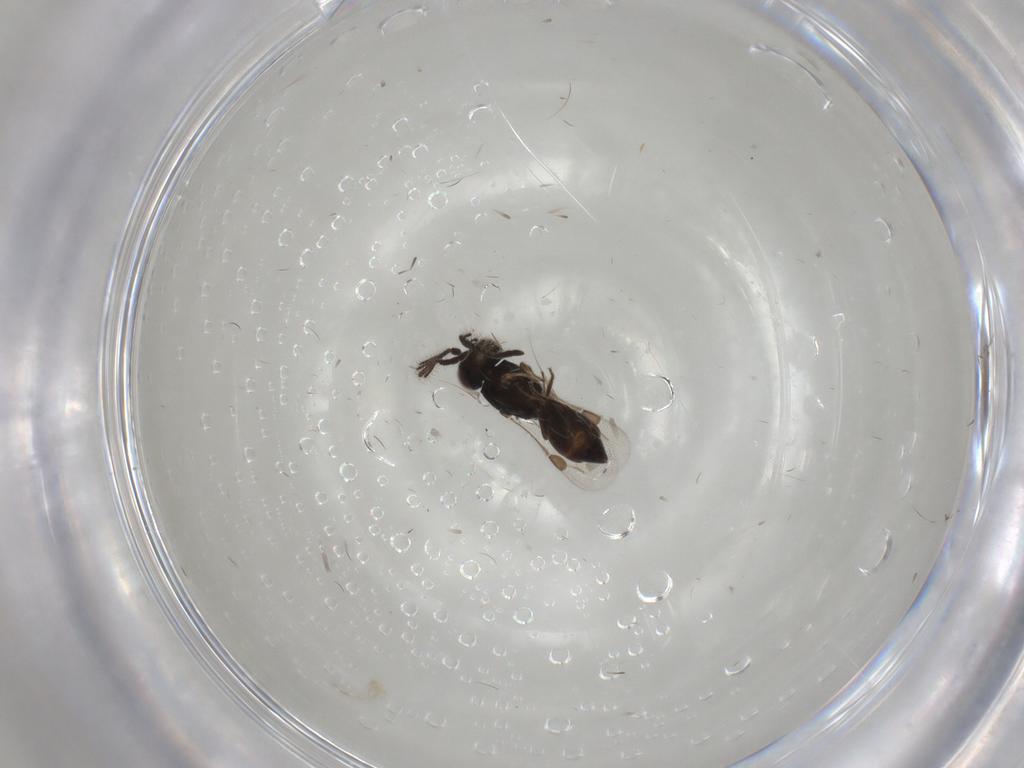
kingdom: Animalia
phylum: Arthropoda
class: Insecta
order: Hymenoptera
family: Megaspilidae
